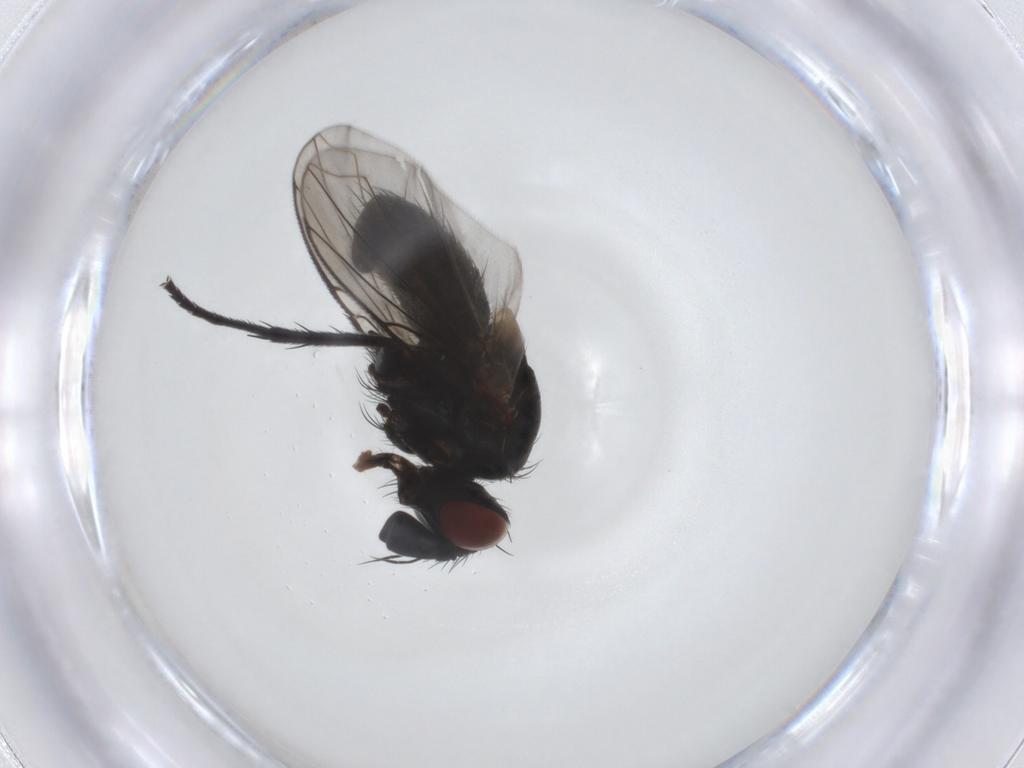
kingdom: Animalia
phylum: Arthropoda
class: Insecta
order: Diptera
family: Tachinidae
